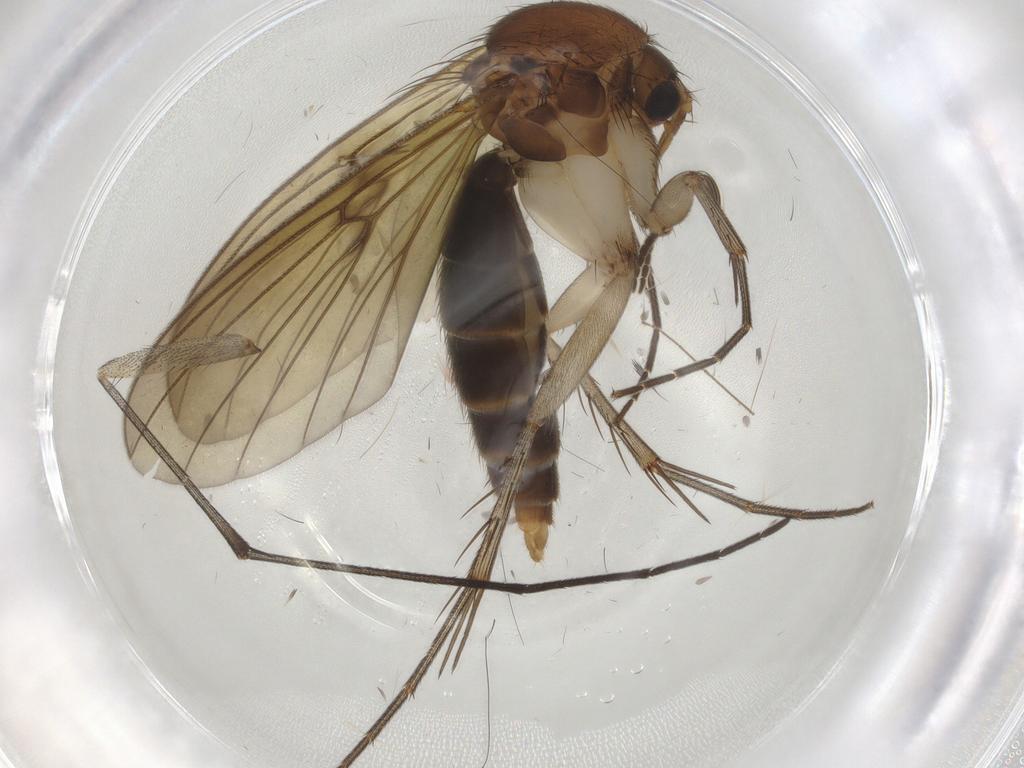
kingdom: Animalia
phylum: Arthropoda
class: Insecta
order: Diptera
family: Mycetophilidae
